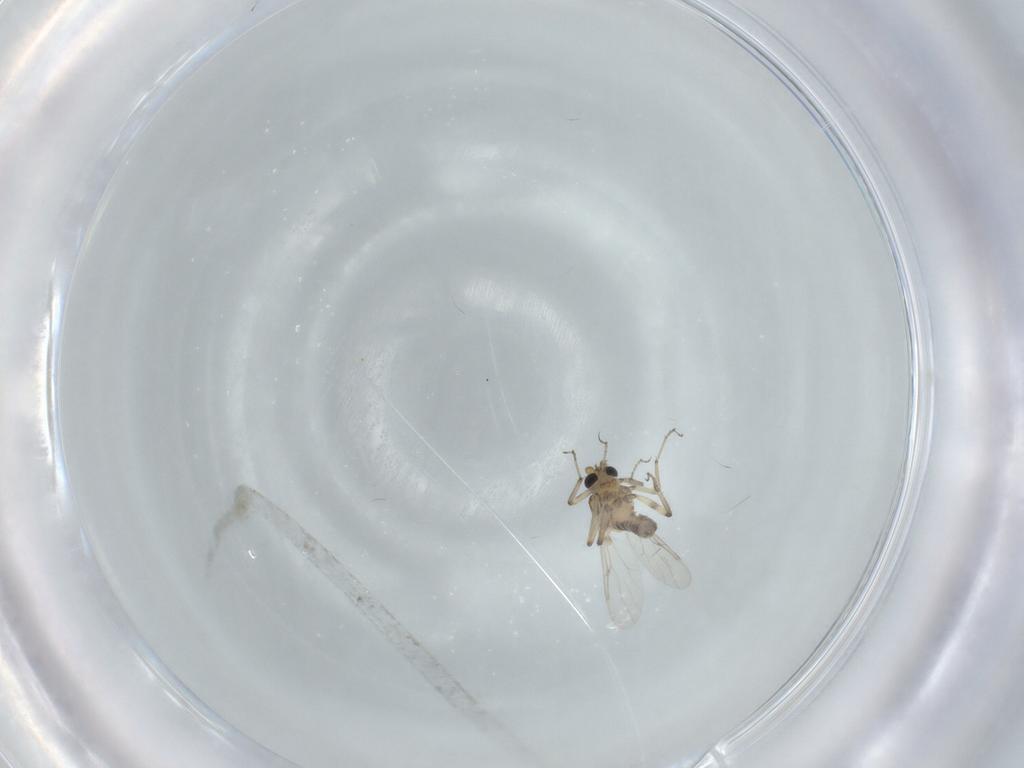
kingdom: Animalia
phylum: Arthropoda
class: Insecta
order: Diptera
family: Ceratopogonidae
